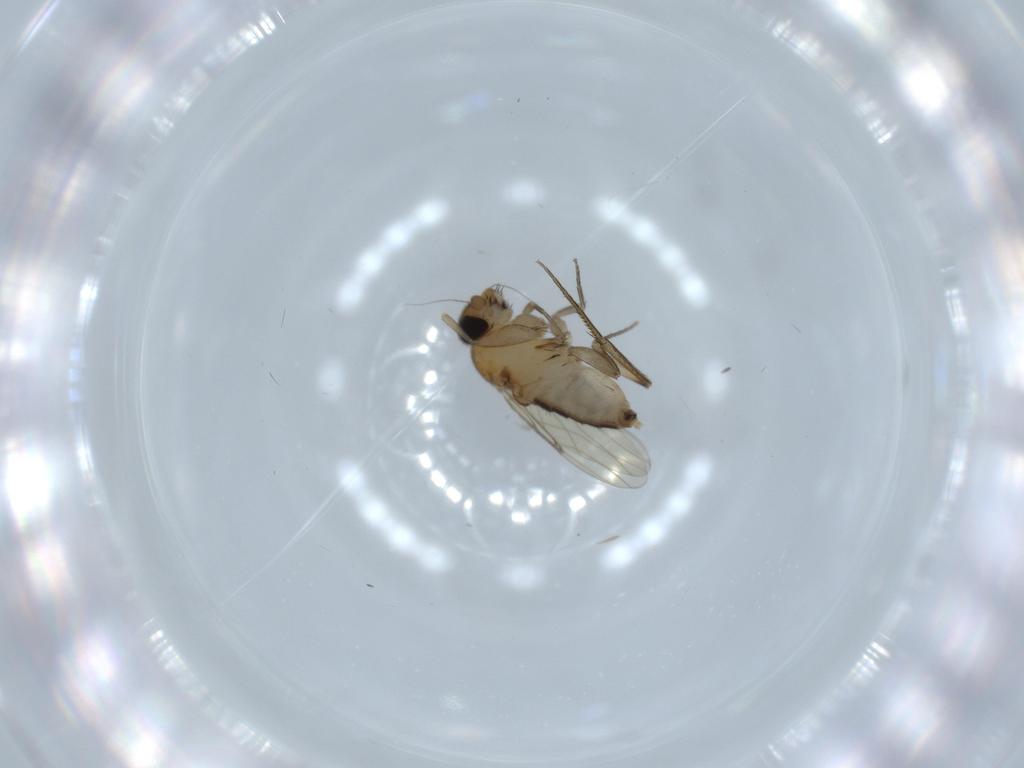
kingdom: Animalia
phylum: Arthropoda
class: Insecta
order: Diptera
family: Phoridae
